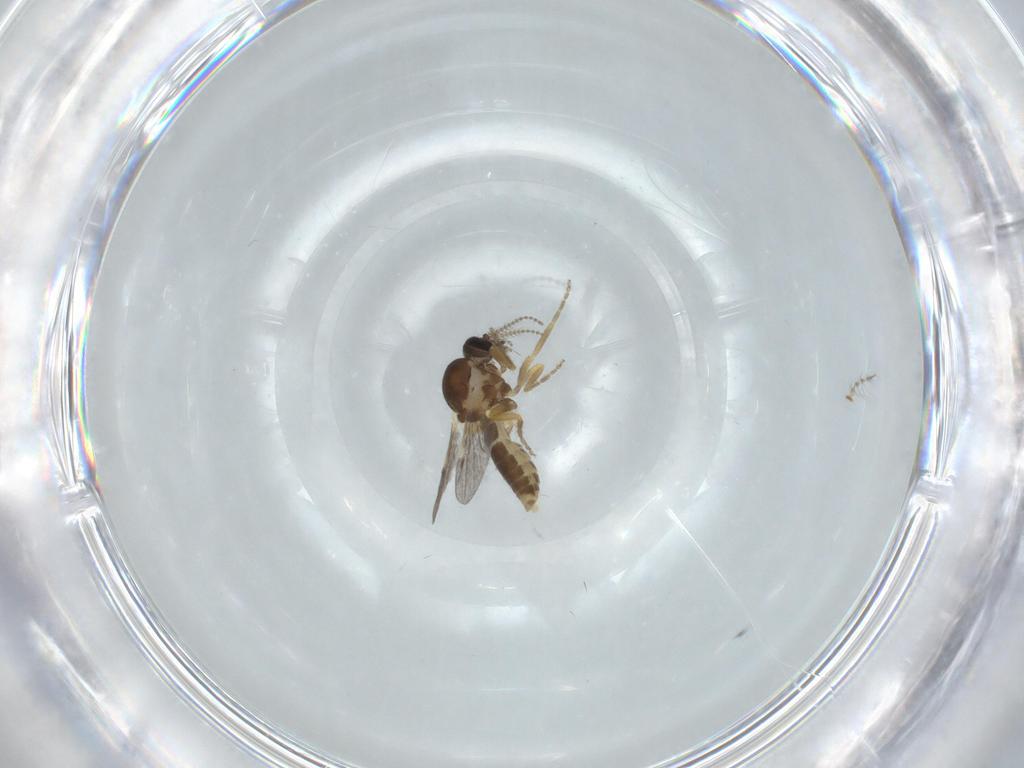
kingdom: Animalia
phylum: Arthropoda
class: Insecta
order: Diptera
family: Ceratopogonidae
